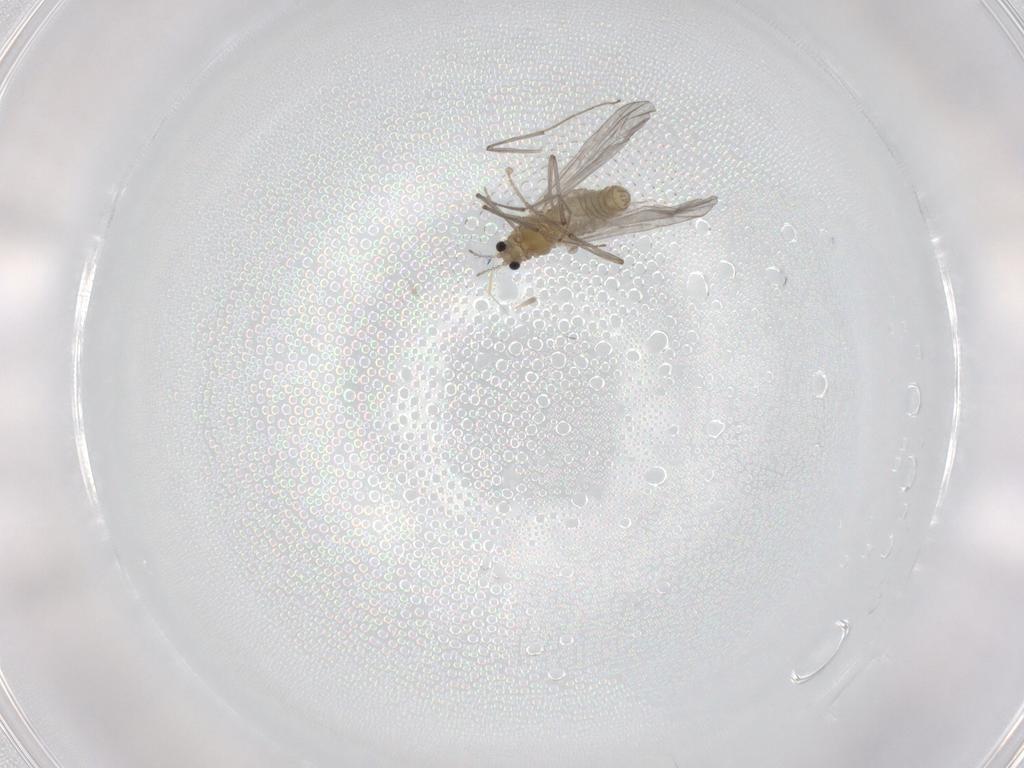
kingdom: Animalia
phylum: Arthropoda
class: Insecta
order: Diptera
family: Chironomidae
